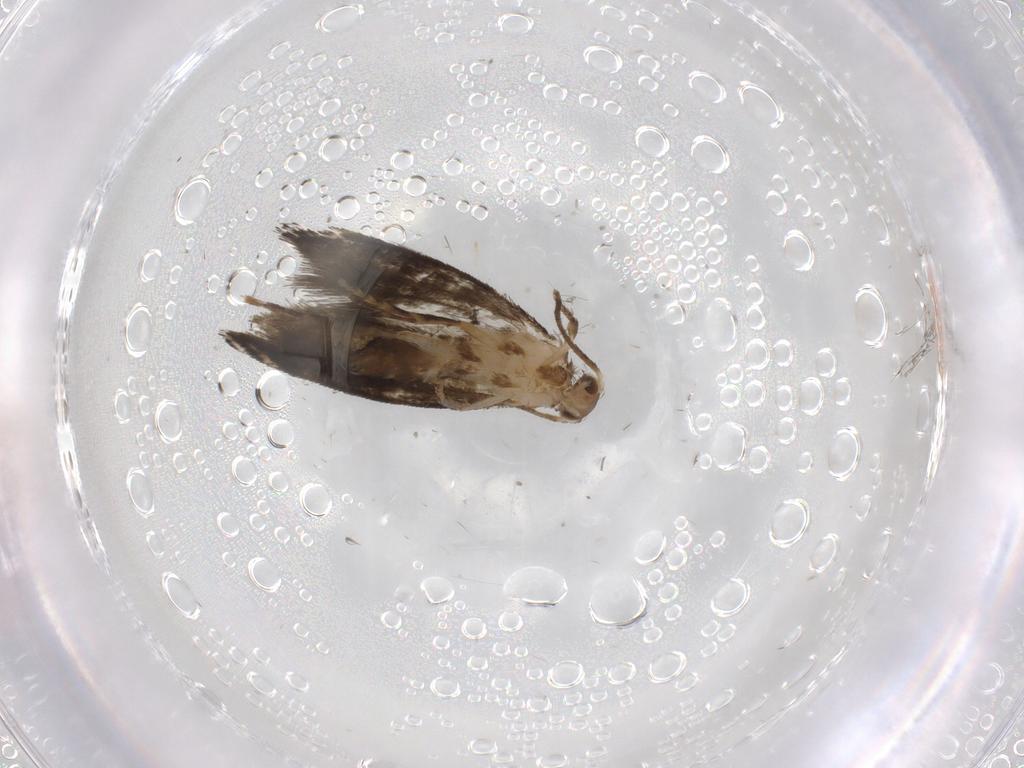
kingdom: Animalia
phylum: Arthropoda
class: Insecta
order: Lepidoptera
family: Tineidae
